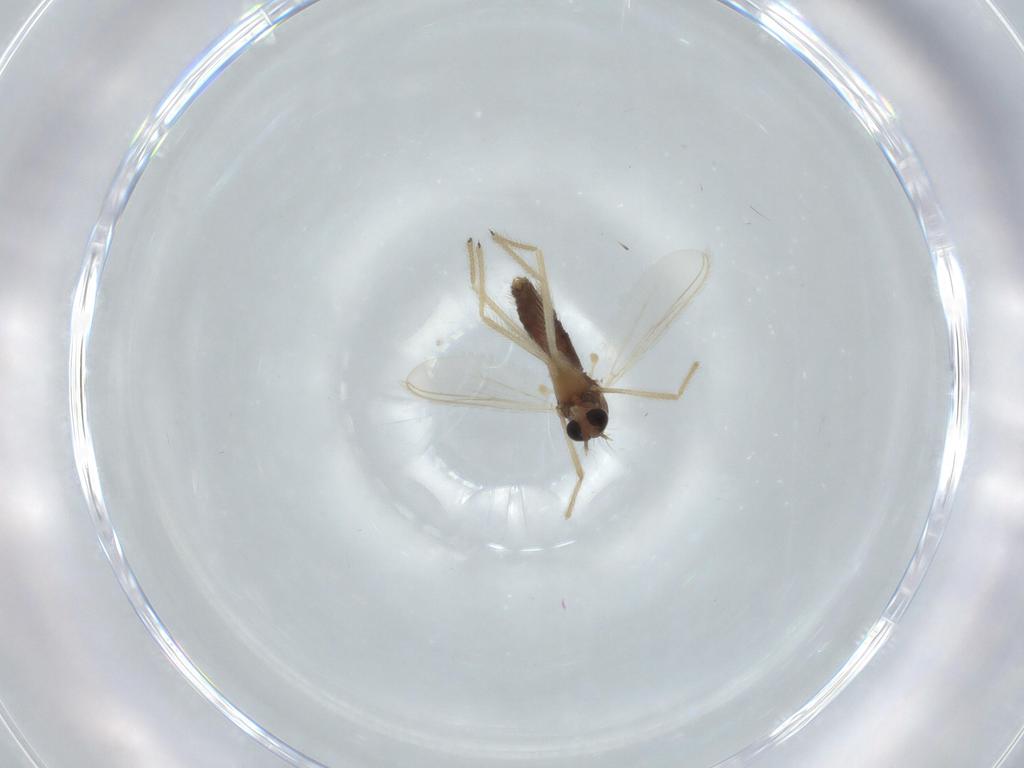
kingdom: Animalia
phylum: Arthropoda
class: Insecta
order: Diptera
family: Chironomidae
